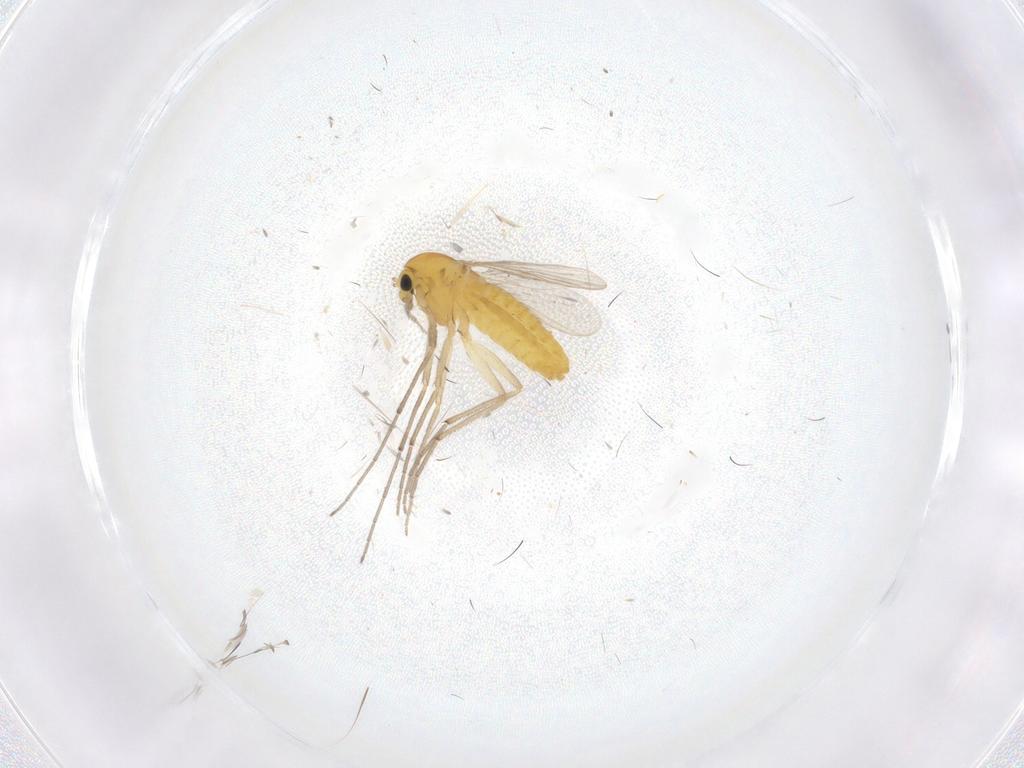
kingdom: Animalia
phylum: Arthropoda
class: Insecta
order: Diptera
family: Chironomidae
